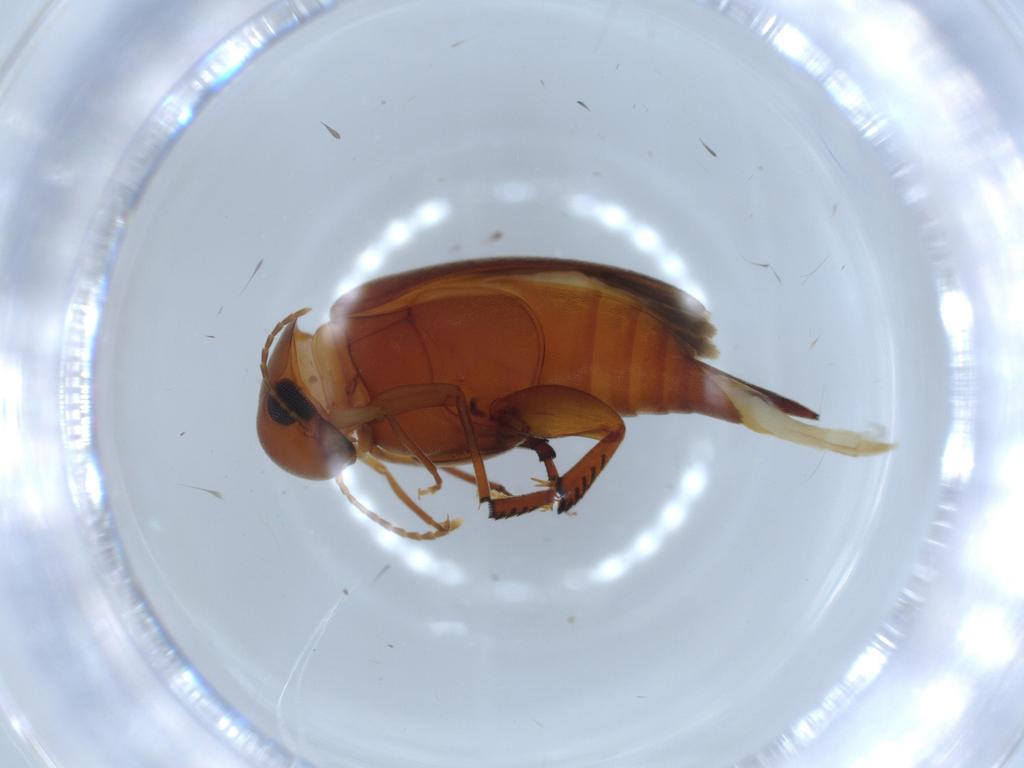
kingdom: Animalia
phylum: Arthropoda
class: Insecta
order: Coleoptera
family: Mordellidae
